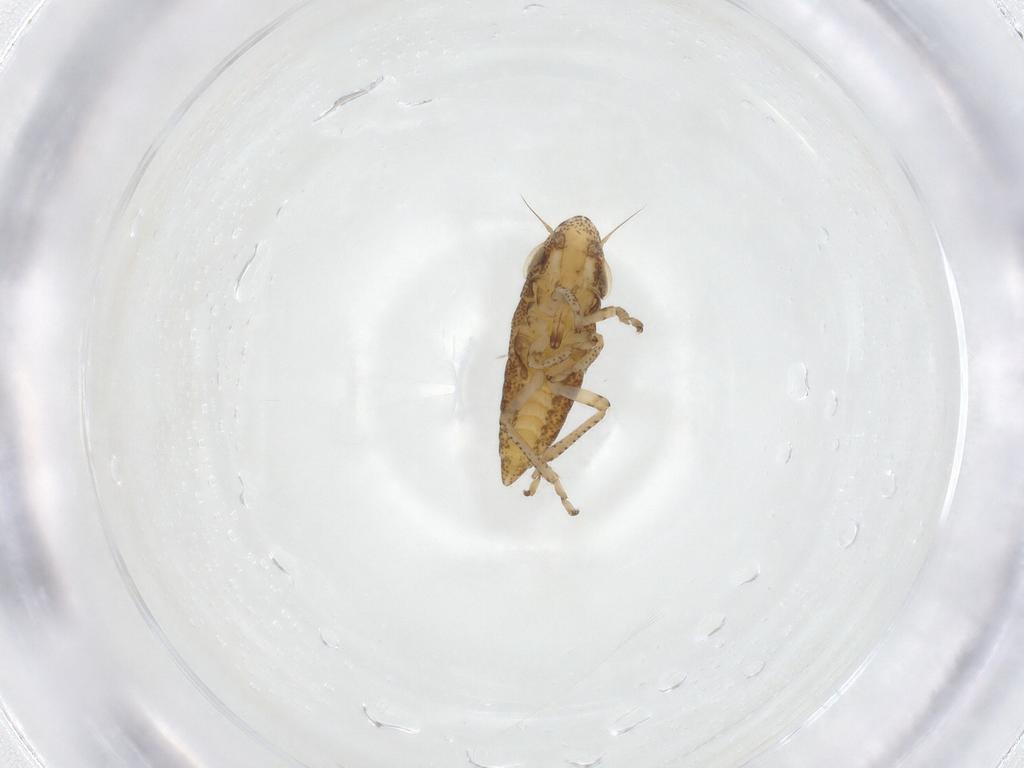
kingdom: Animalia
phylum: Arthropoda
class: Insecta
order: Hemiptera
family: Cicadellidae
